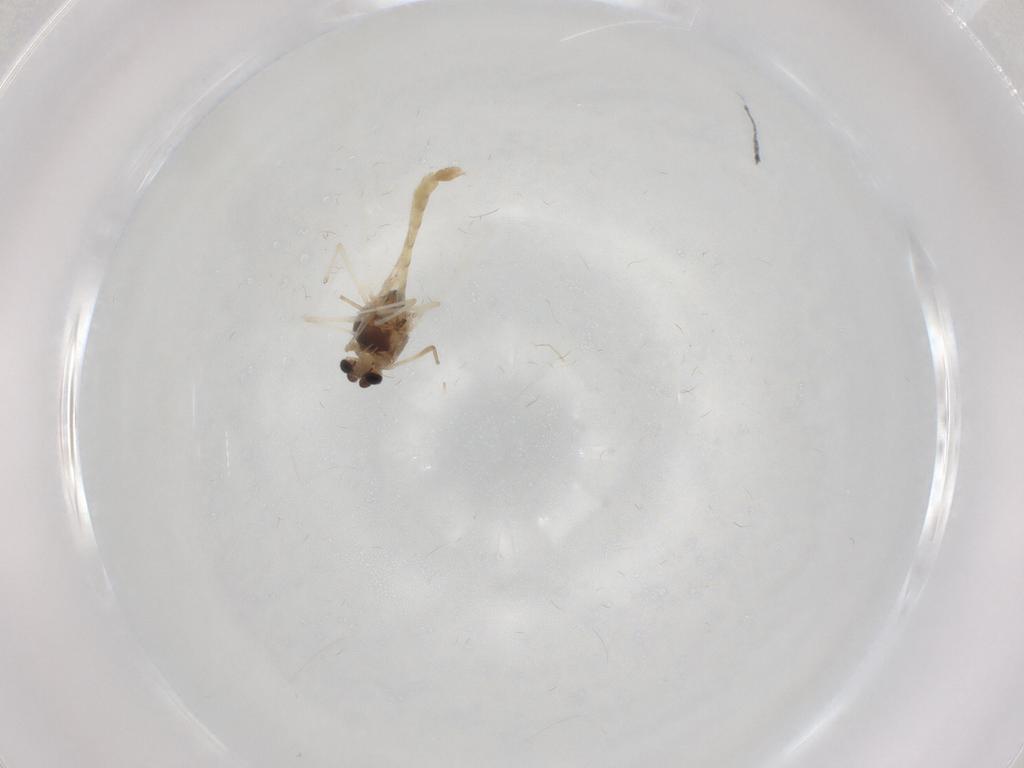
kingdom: Animalia
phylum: Arthropoda
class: Insecta
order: Diptera
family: Chironomidae
